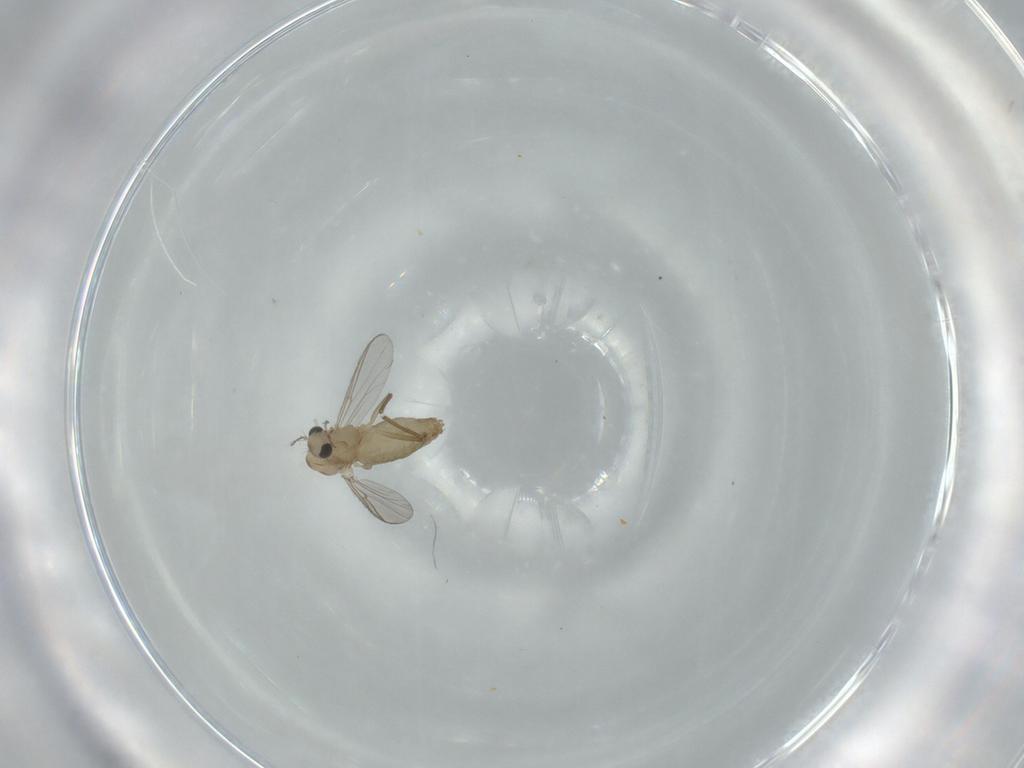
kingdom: Animalia
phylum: Arthropoda
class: Insecta
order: Diptera
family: Chironomidae
